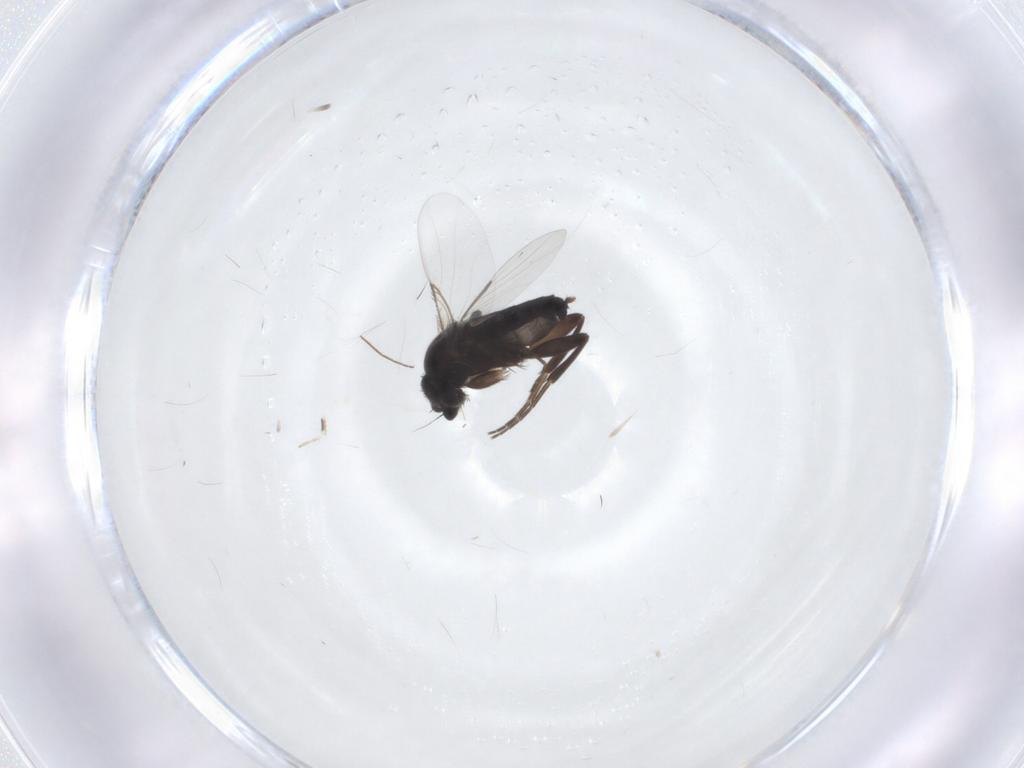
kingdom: Animalia
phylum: Arthropoda
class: Insecta
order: Diptera
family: Phoridae
